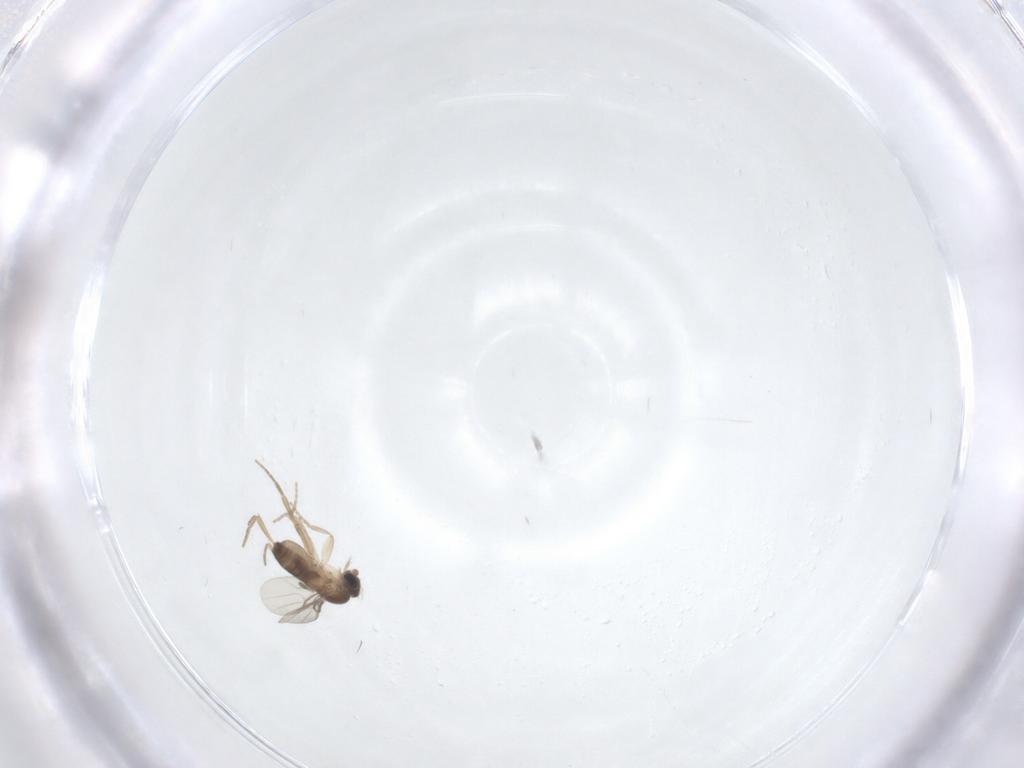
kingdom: Animalia
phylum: Arthropoda
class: Insecta
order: Diptera
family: Phoridae
